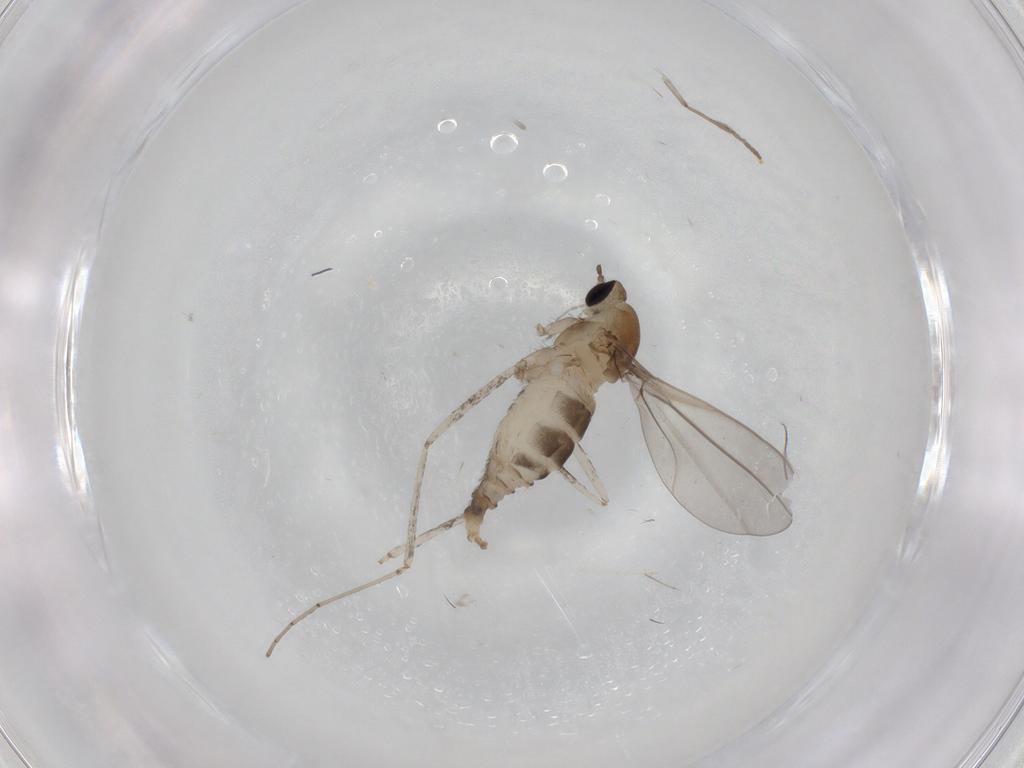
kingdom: Animalia
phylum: Arthropoda
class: Insecta
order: Diptera
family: Cecidomyiidae
